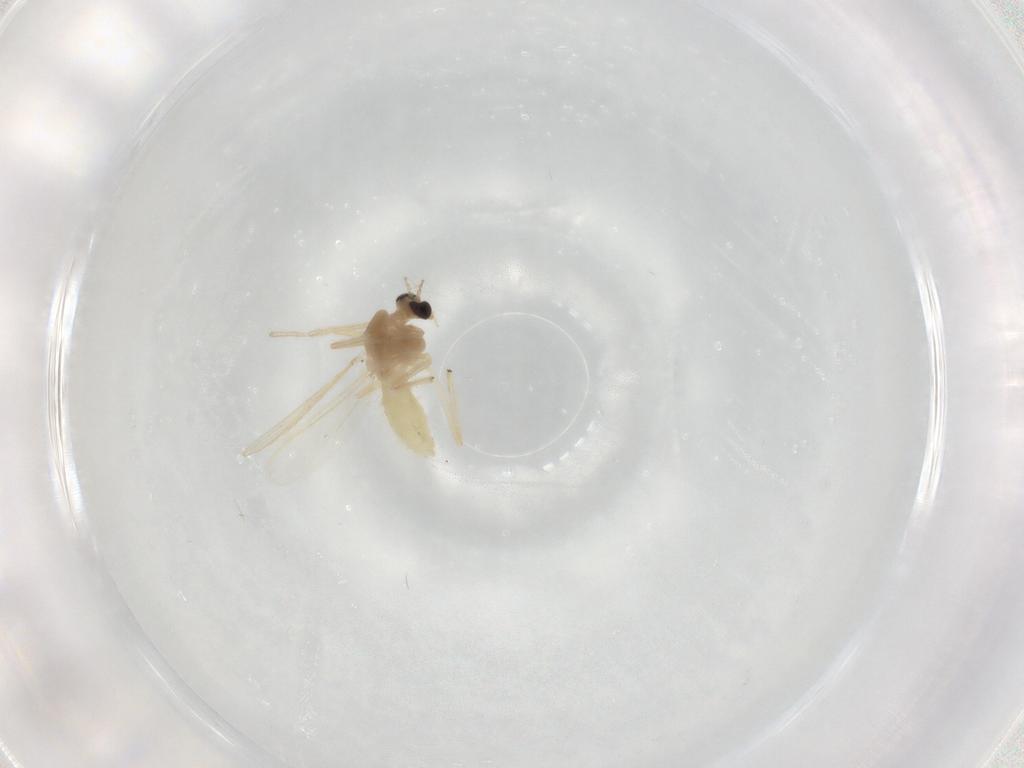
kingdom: Animalia
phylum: Arthropoda
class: Insecta
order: Diptera
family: Chironomidae
